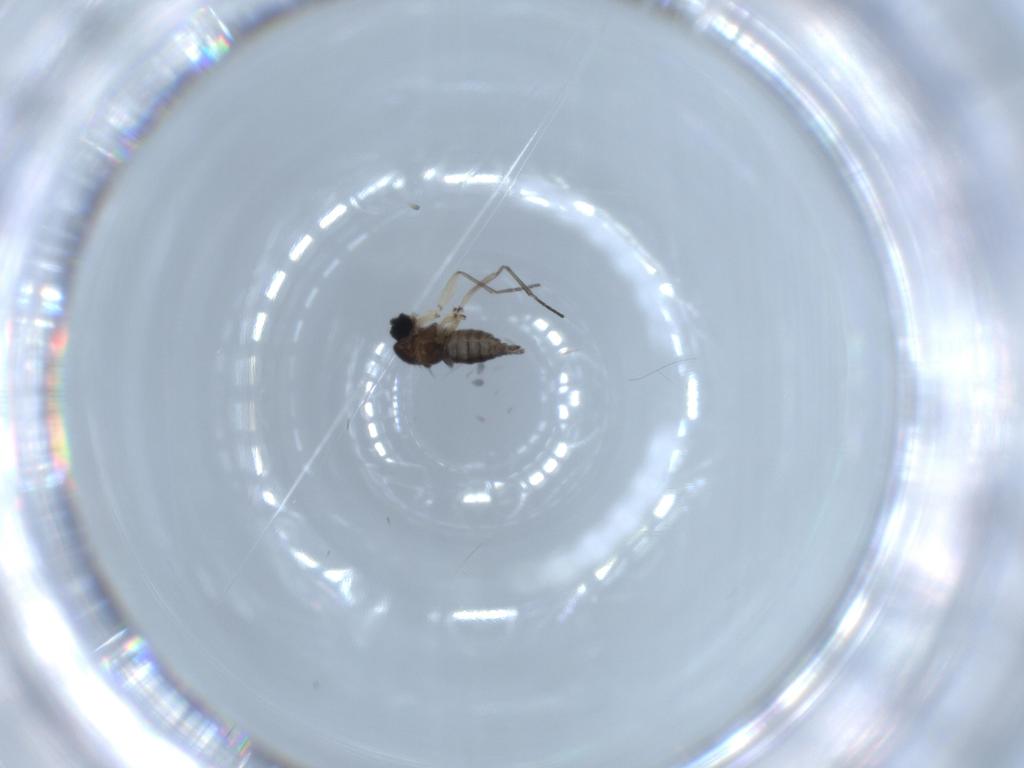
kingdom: Animalia
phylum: Arthropoda
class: Insecta
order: Diptera
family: Sciaridae
